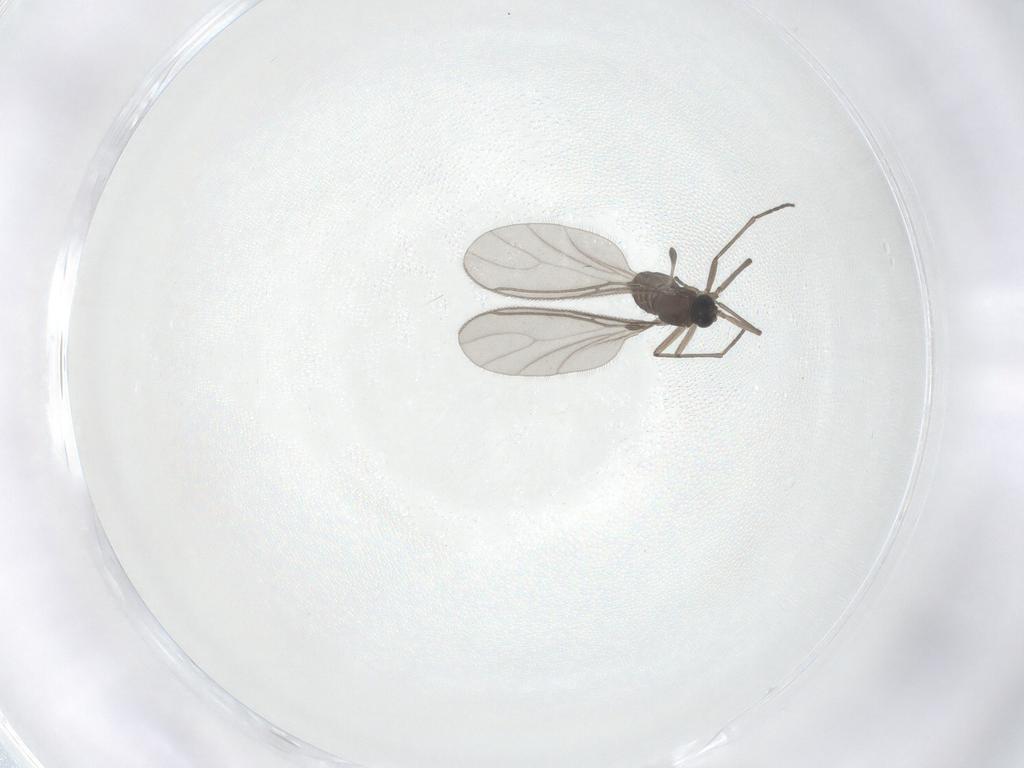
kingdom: Animalia
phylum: Arthropoda
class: Insecta
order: Diptera
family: Sciaridae
